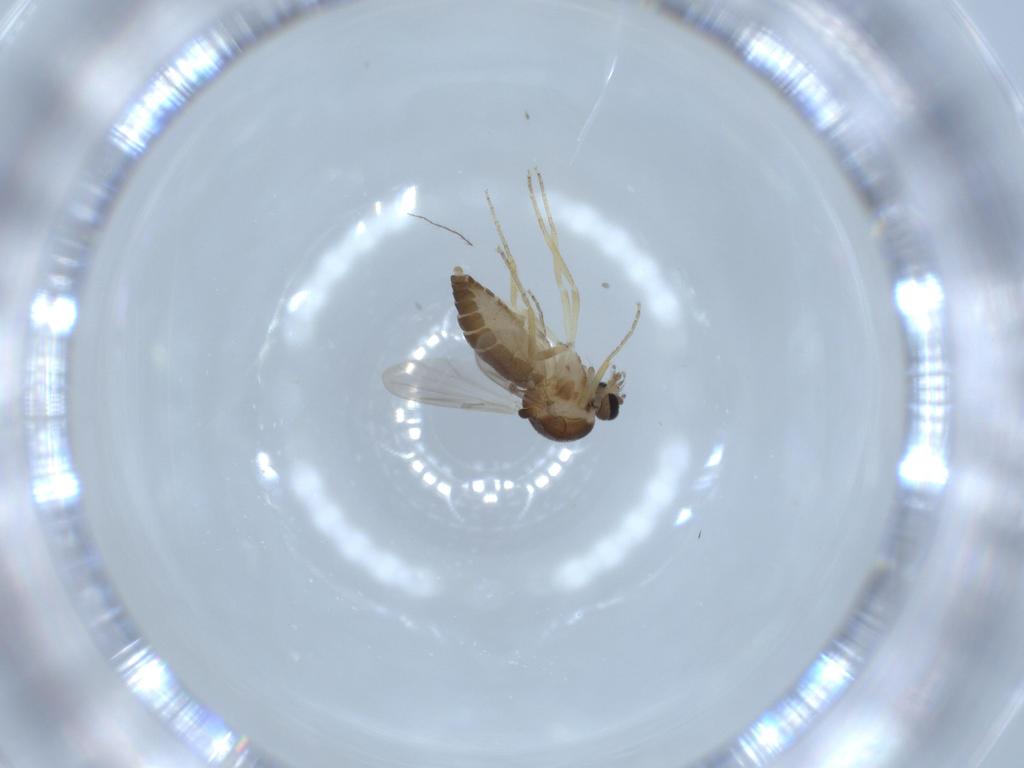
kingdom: Animalia
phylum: Arthropoda
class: Insecta
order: Diptera
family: Ceratopogonidae
